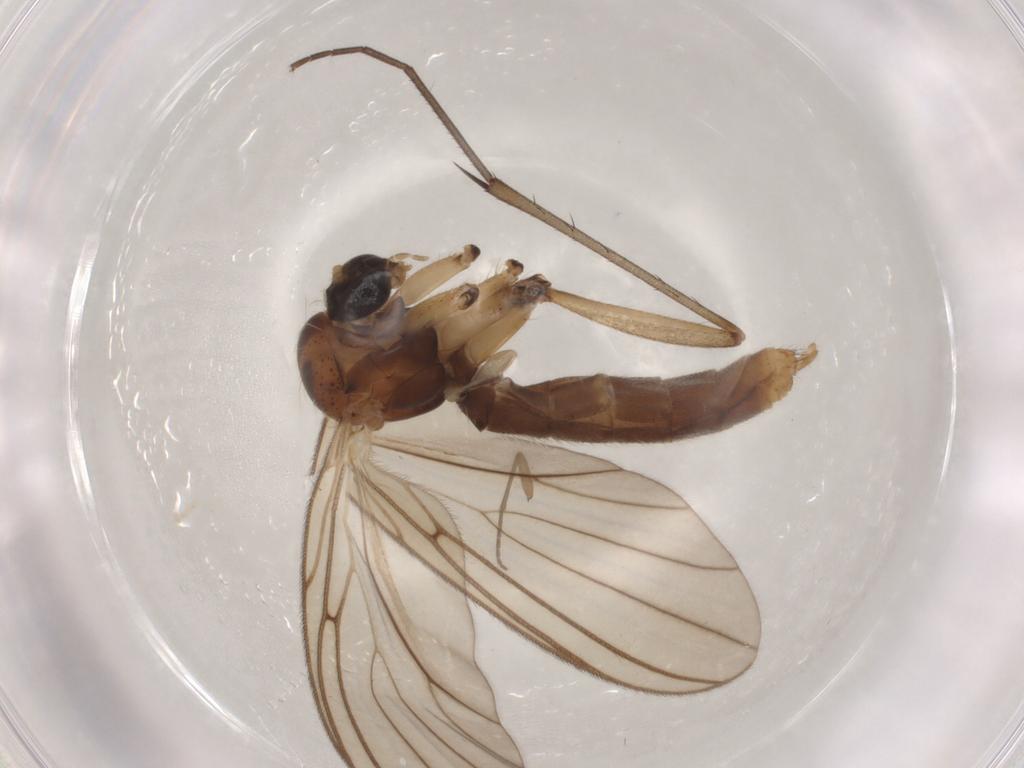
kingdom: Animalia
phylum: Arthropoda
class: Insecta
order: Diptera
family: Mycetophilidae
